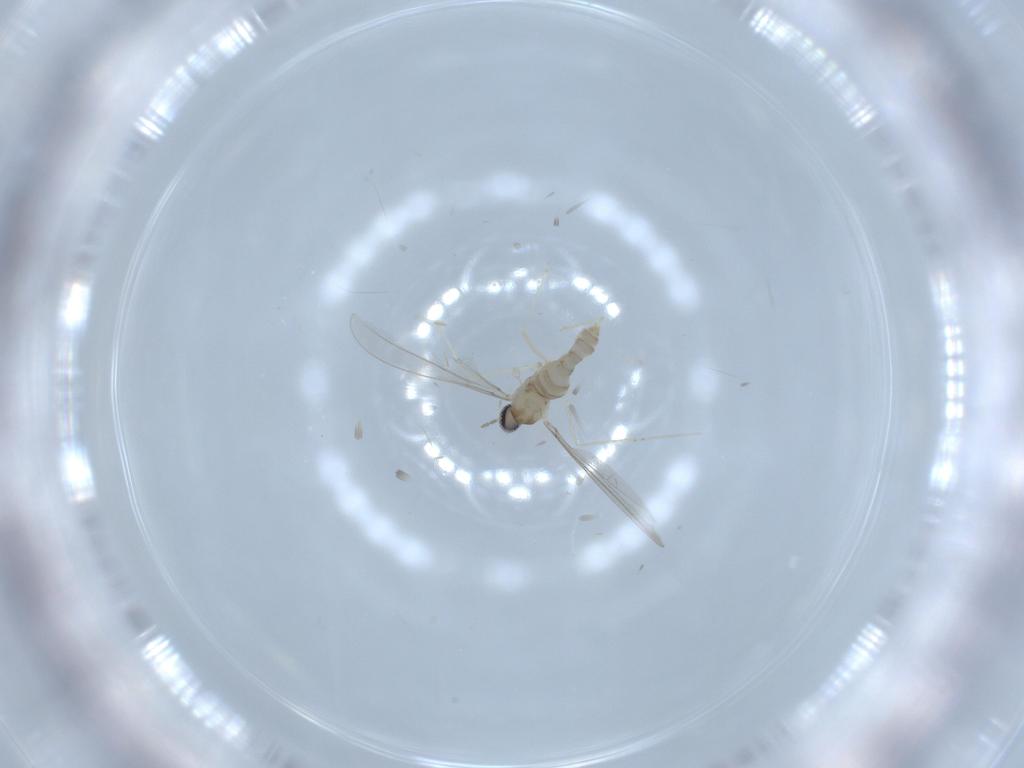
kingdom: Animalia
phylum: Arthropoda
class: Insecta
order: Diptera
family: Cecidomyiidae
